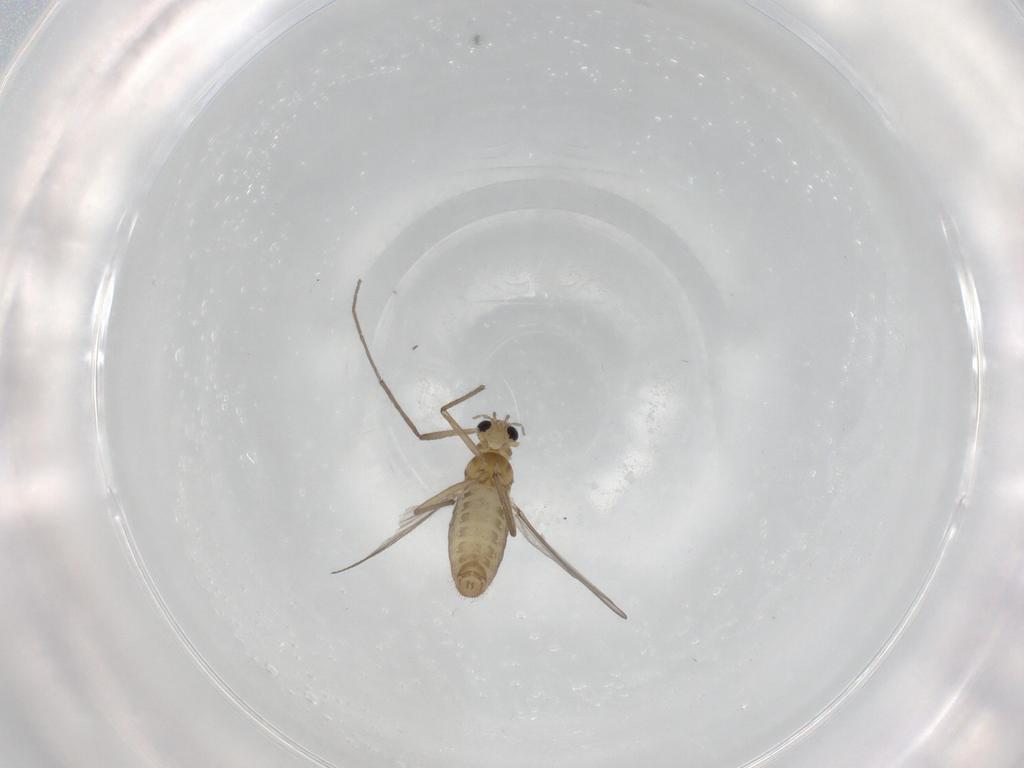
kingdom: Animalia
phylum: Arthropoda
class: Insecta
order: Diptera
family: Chironomidae
